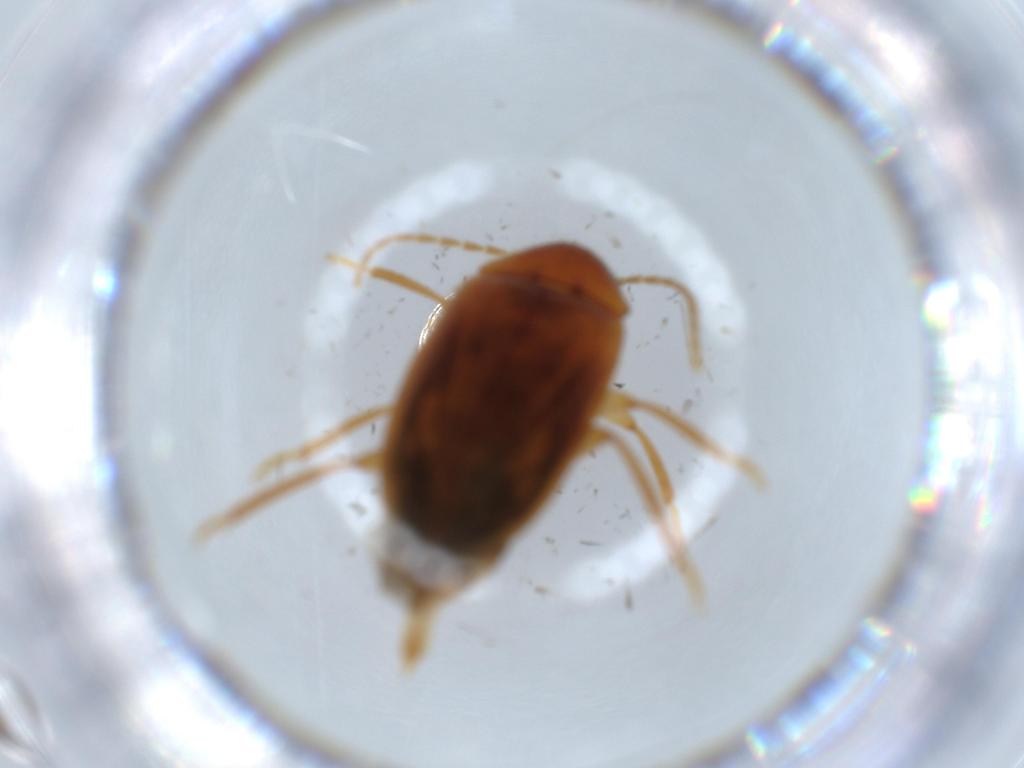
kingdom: Animalia
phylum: Arthropoda
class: Insecta
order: Coleoptera
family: Ptilodactylidae
